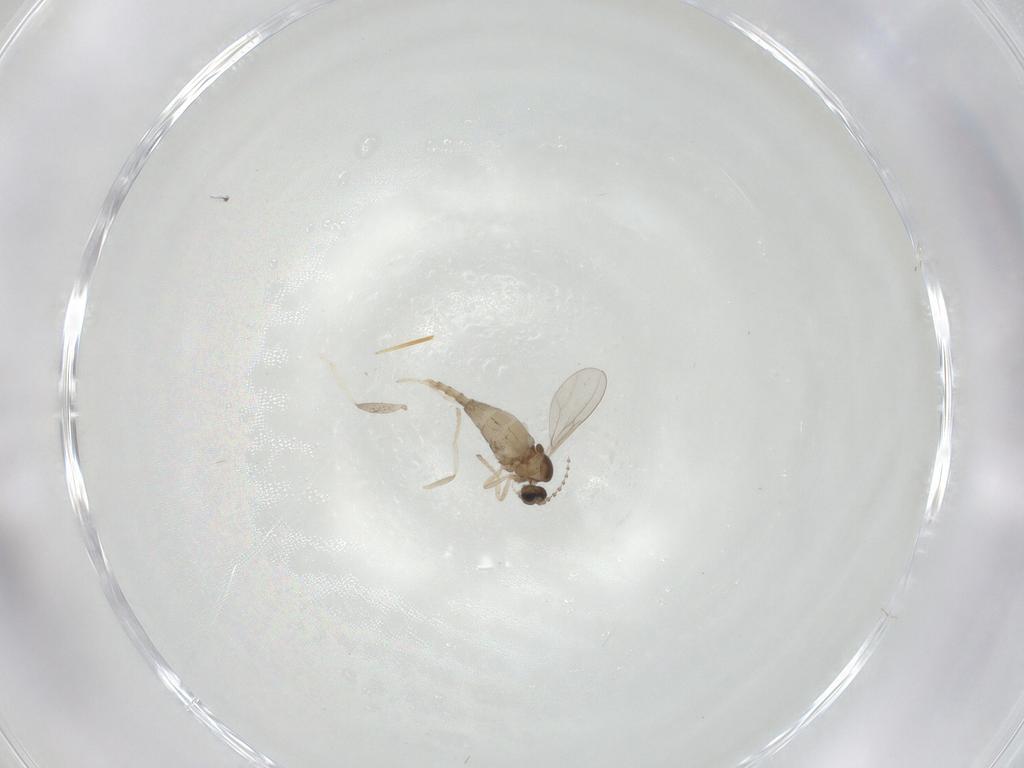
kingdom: Animalia
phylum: Arthropoda
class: Insecta
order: Diptera
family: Cecidomyiidae
